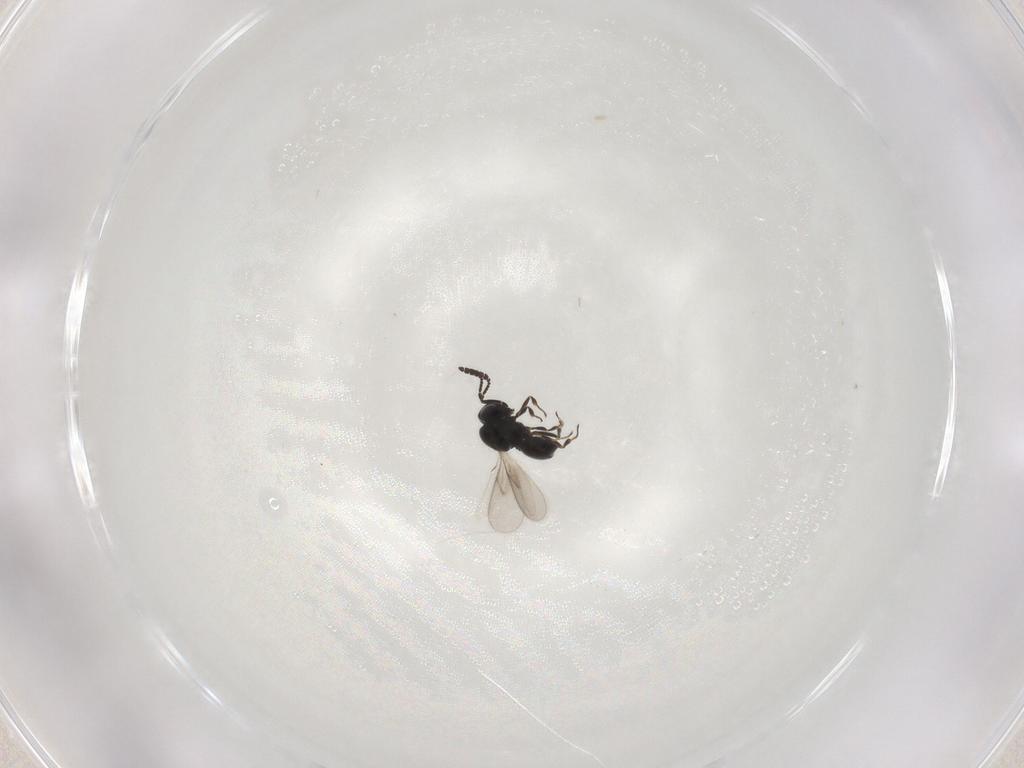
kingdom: Animalia
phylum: Arthropoda
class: Insecta
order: Hymenoptera
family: Scelionidae
